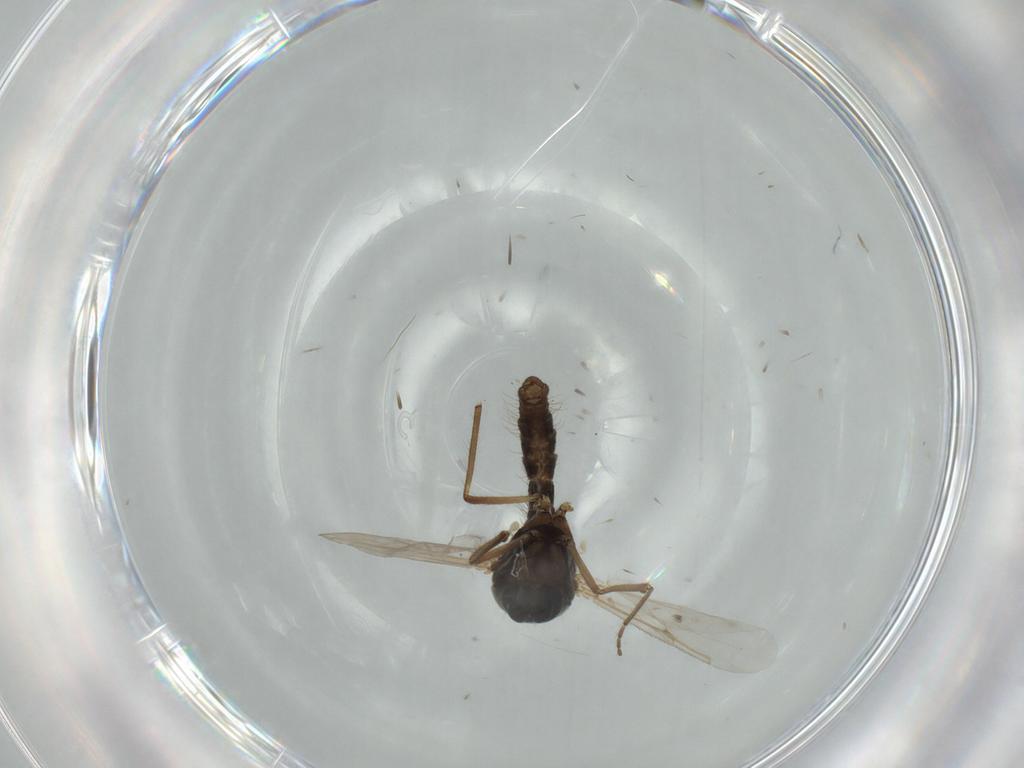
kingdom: Animalia
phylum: Arthropoda
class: Insecta
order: Diptera
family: Ceratopogonidae
